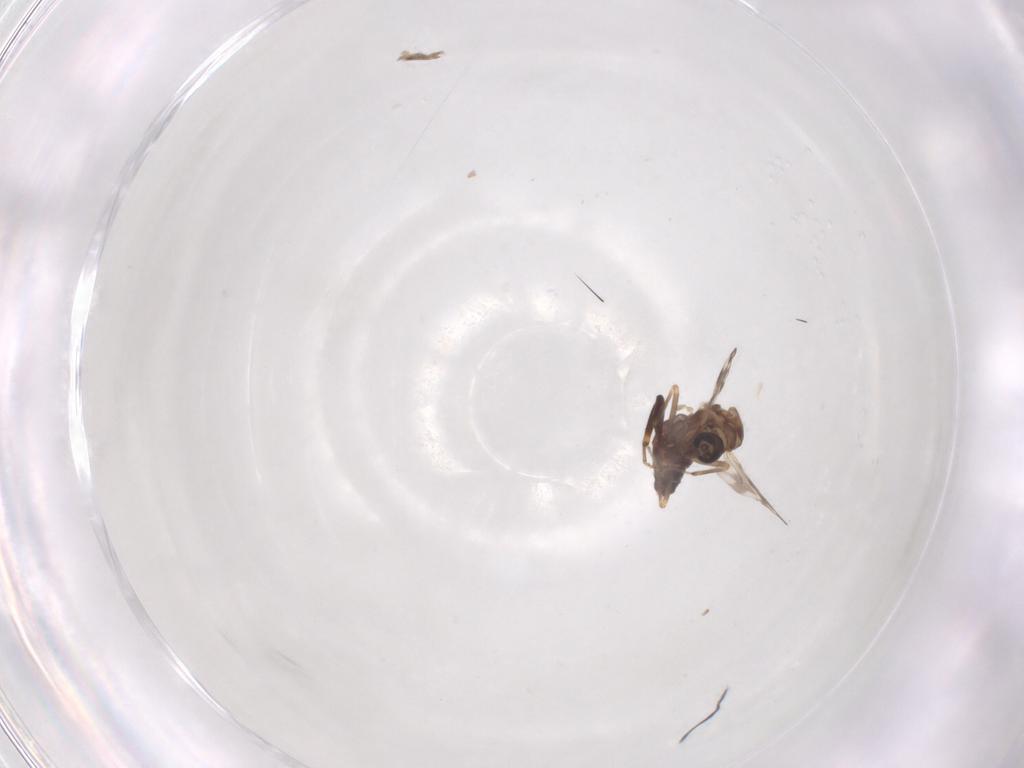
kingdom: Animalia
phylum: Arthropoda
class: Insecta
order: Diptera
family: Ceratopogonidae
